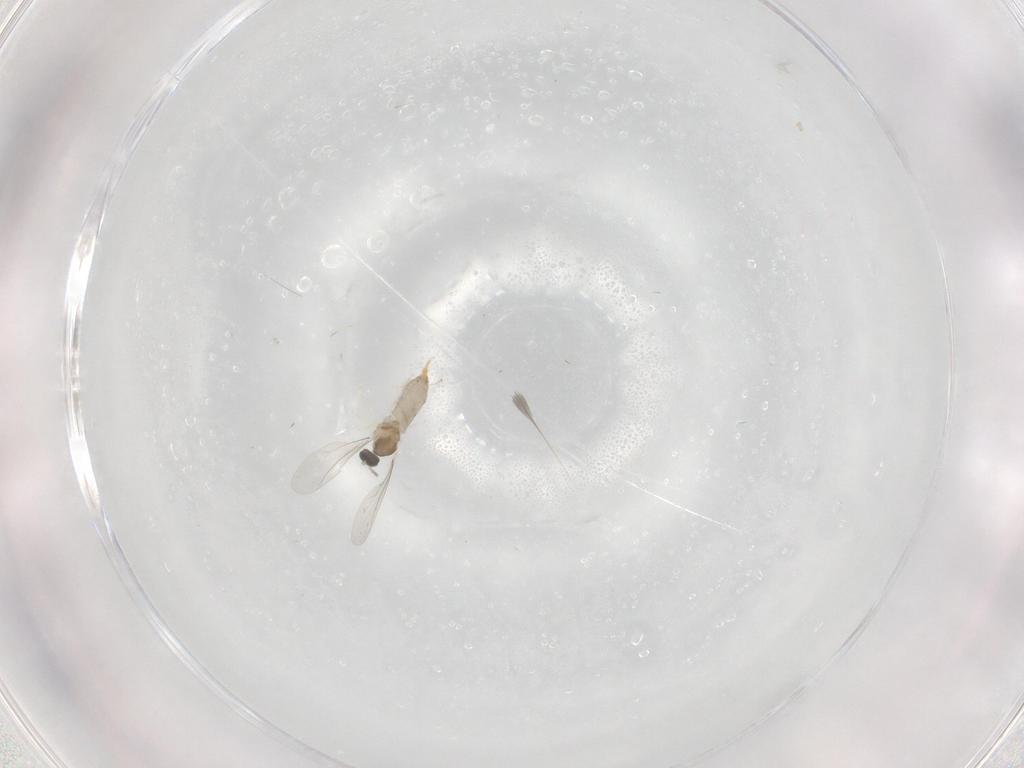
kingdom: Animalia
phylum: Arthropoda
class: Insecta
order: Diptera
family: Cecidomyiidae
